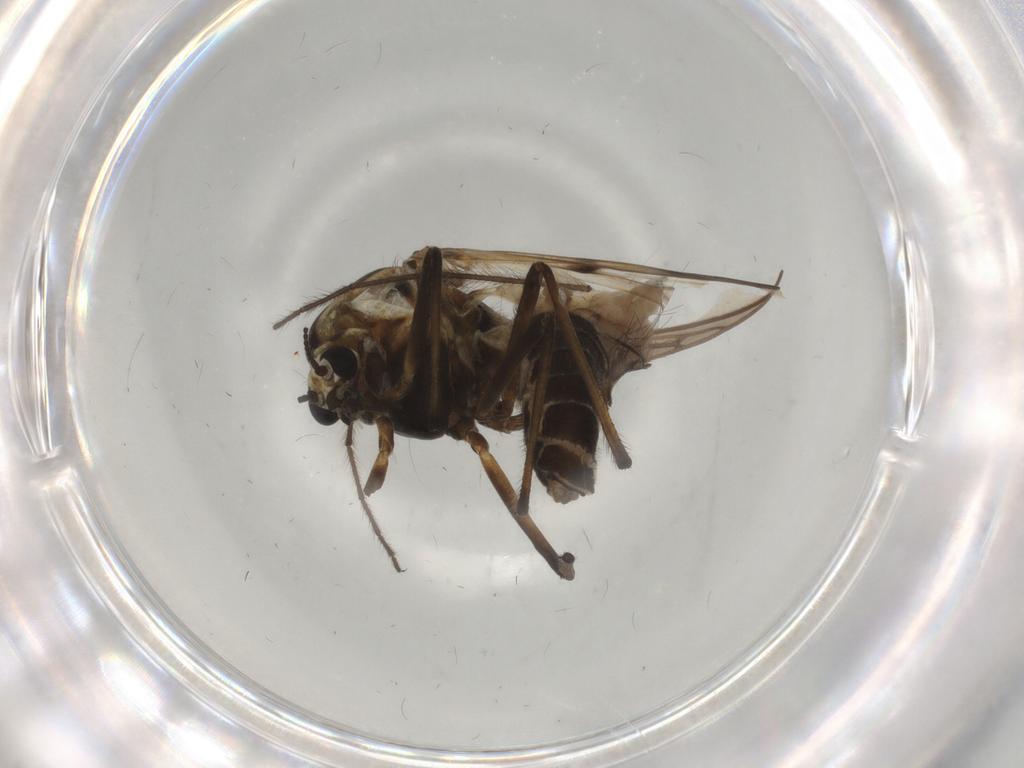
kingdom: Animalia
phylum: Arthropoda
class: Insecta
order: Diptera
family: Chironomidae
